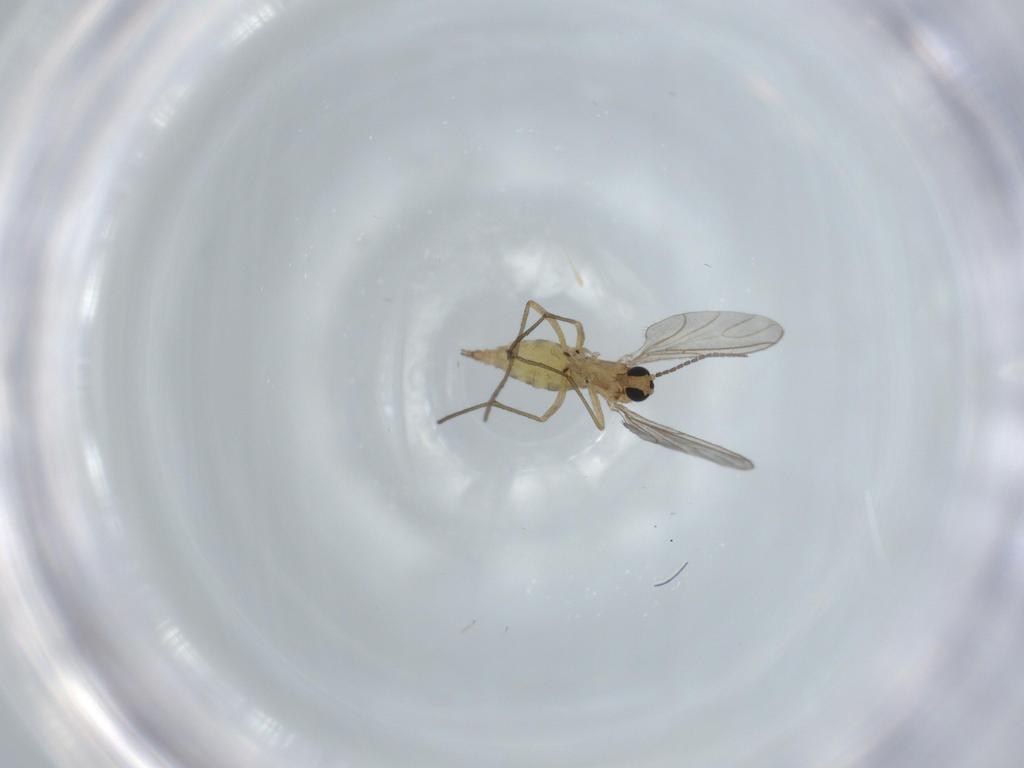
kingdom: Animalia
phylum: Arthropoda
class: Insecta
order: Diptera
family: Sciaridae
